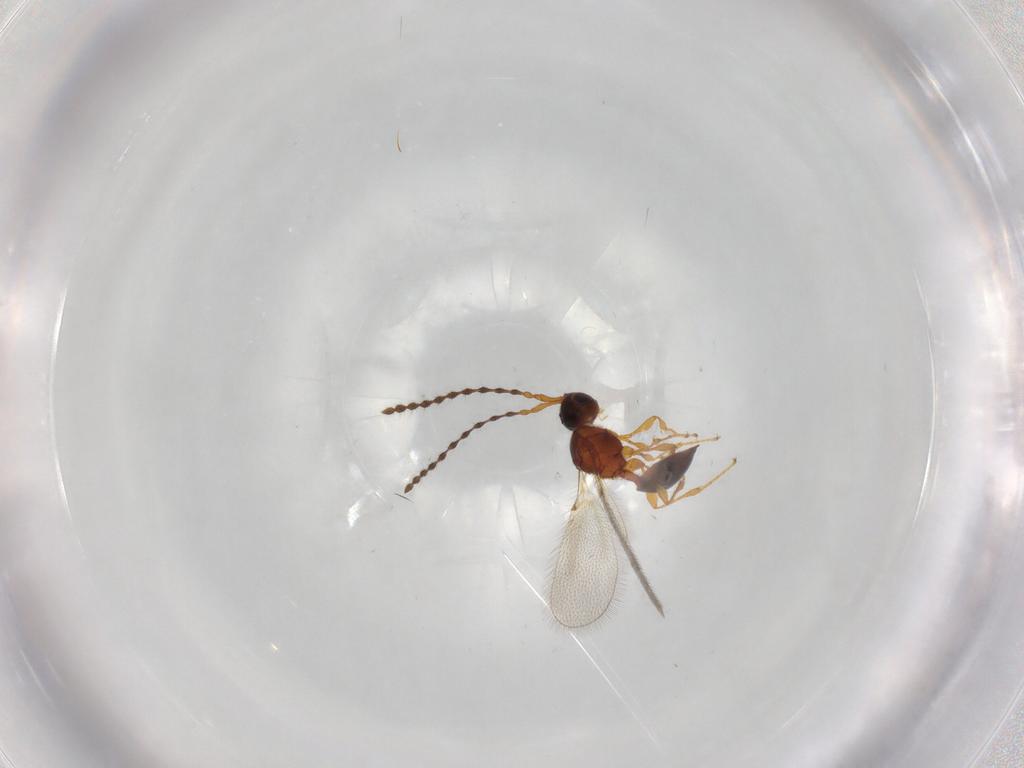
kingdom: Animalia
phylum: Arthropoda
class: Insecta
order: Hymenoptera
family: Diapriidae
